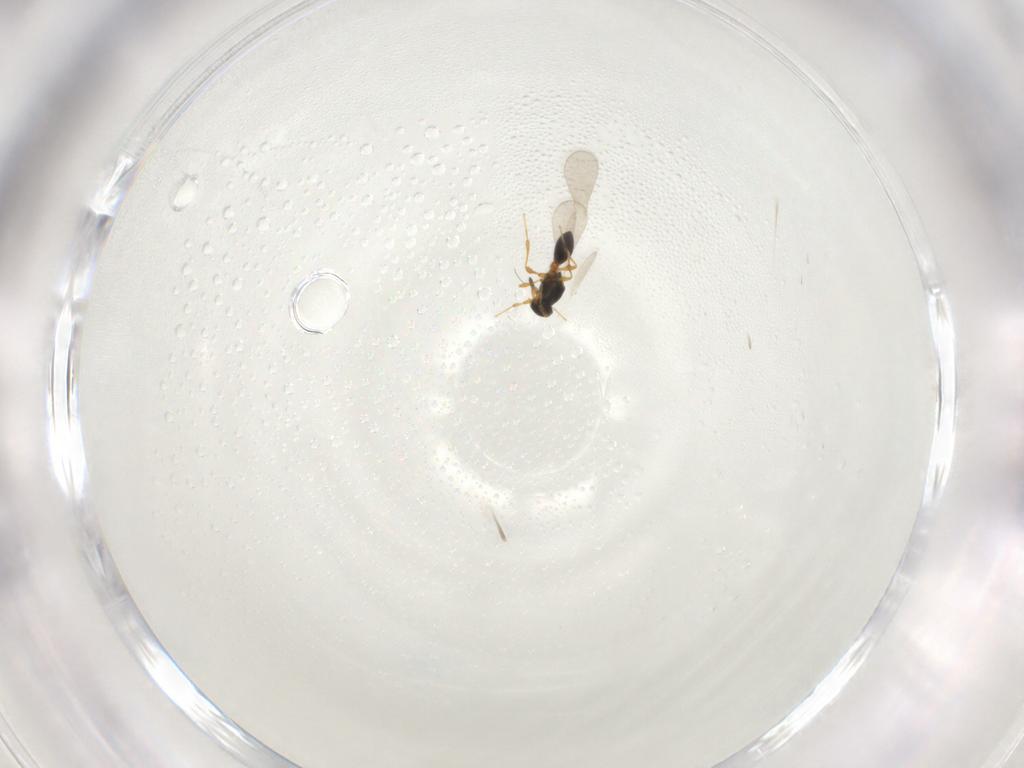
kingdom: Animalia
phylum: Arthropoda
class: Insecta
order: Hymenoptera
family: Platygastridae
